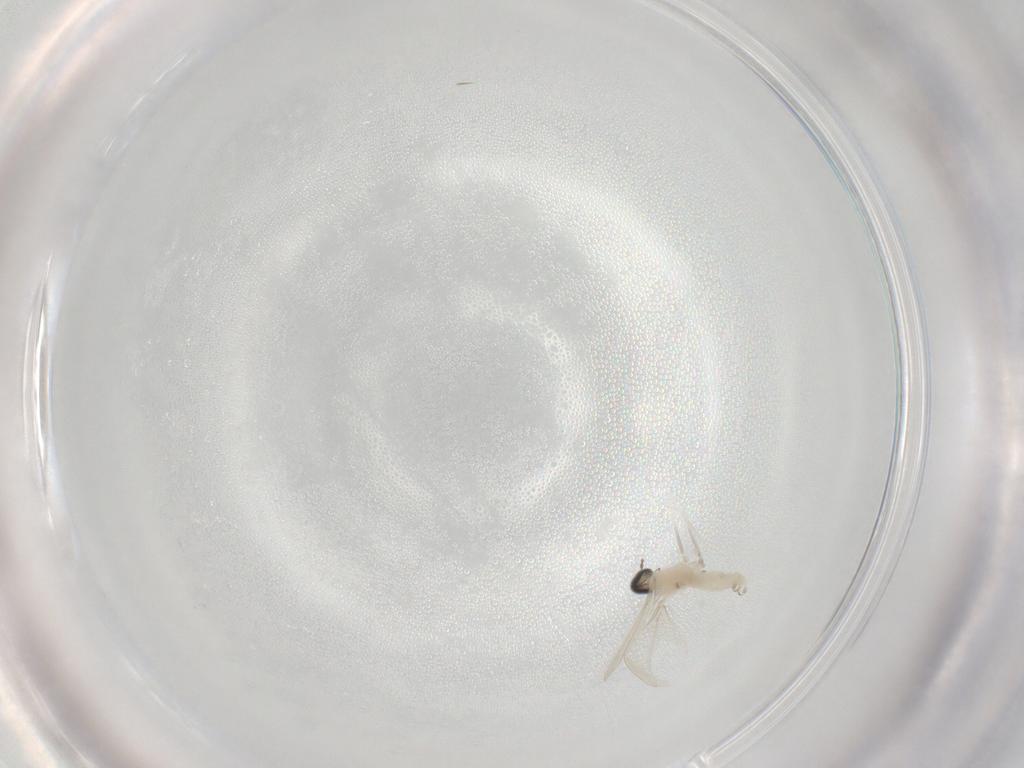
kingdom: Animalia
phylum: Arthropoda
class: Insecta
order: Diptera
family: Cecidomyiidae
